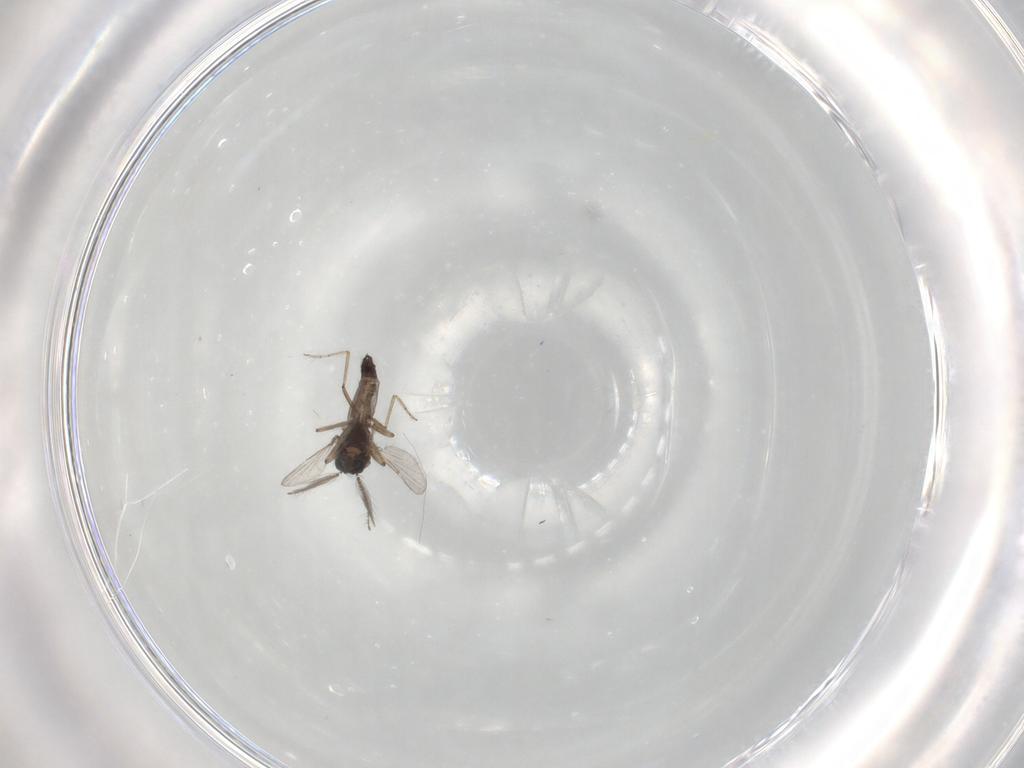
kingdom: Animalia
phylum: Arthropoda
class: Insecta
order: Diptera
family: Ceratopogonidae
